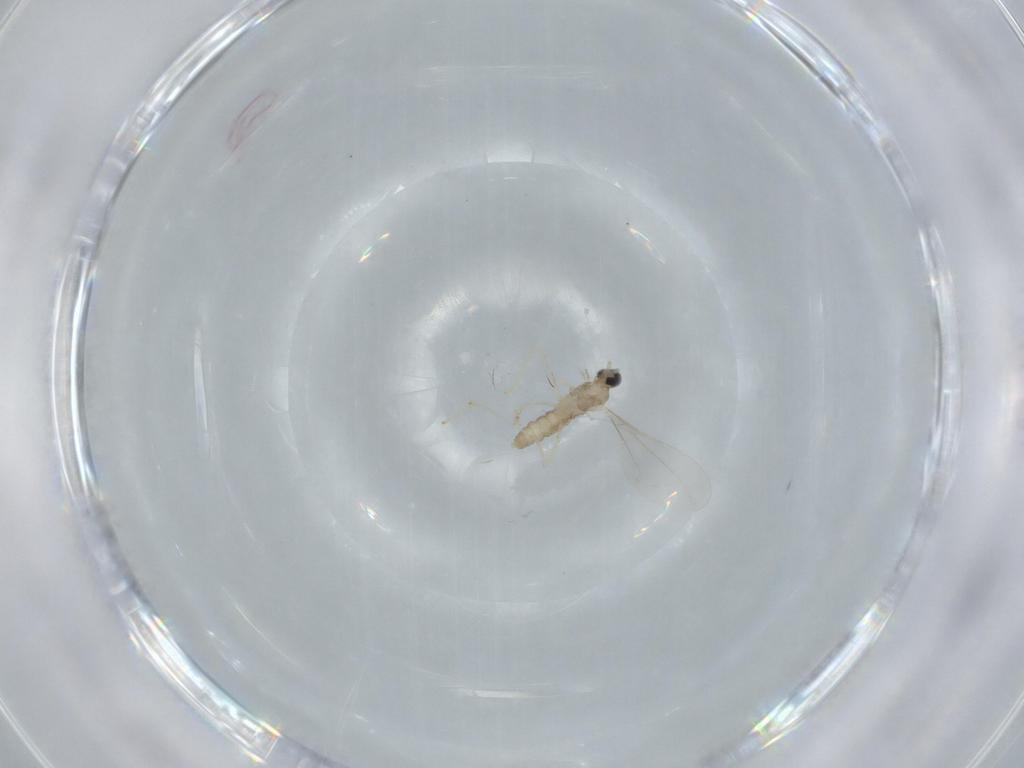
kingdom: Animalia
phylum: Arthropoda
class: Insecta
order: Diptera
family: Cecidomyiidae
